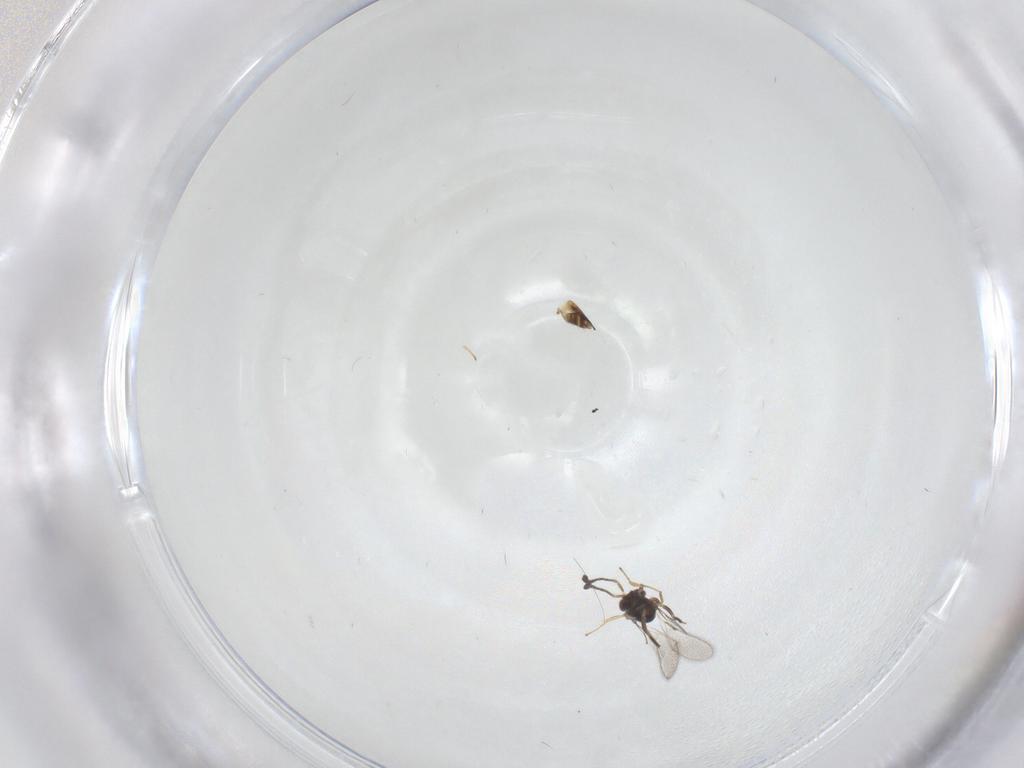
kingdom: Animalia
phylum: Arthropoda
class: Insecta
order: Hymenoptera
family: Mymaridae
